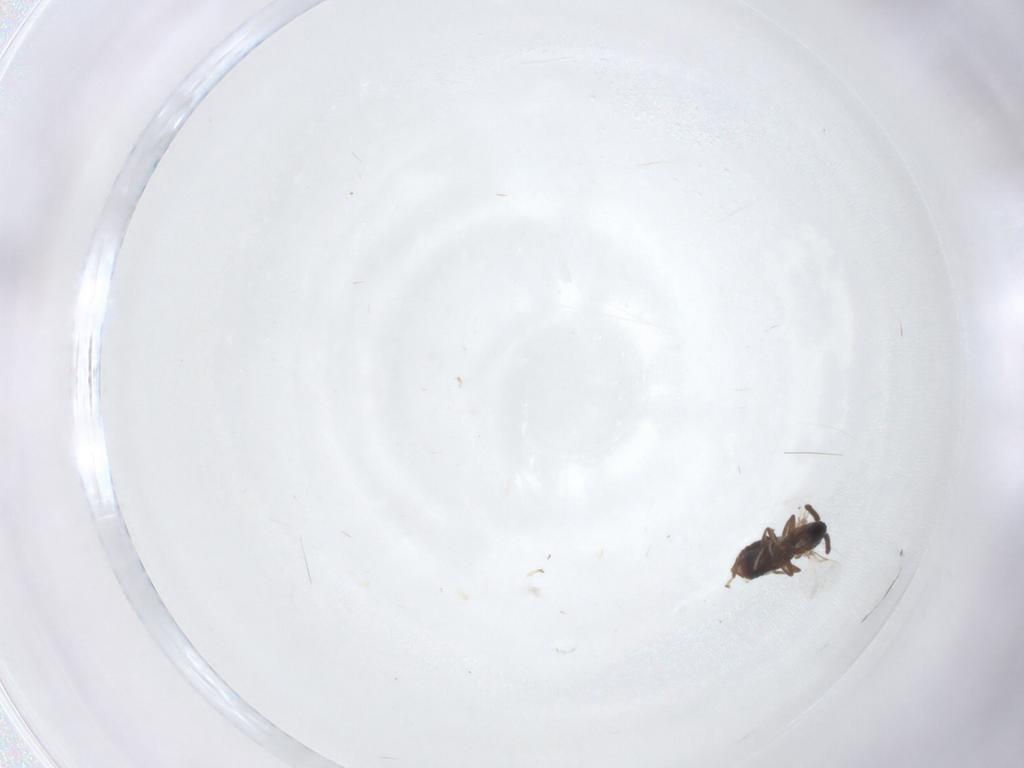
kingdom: Animalia
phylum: Arthropoda
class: Insecta
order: Diptera
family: Scatopsidae
